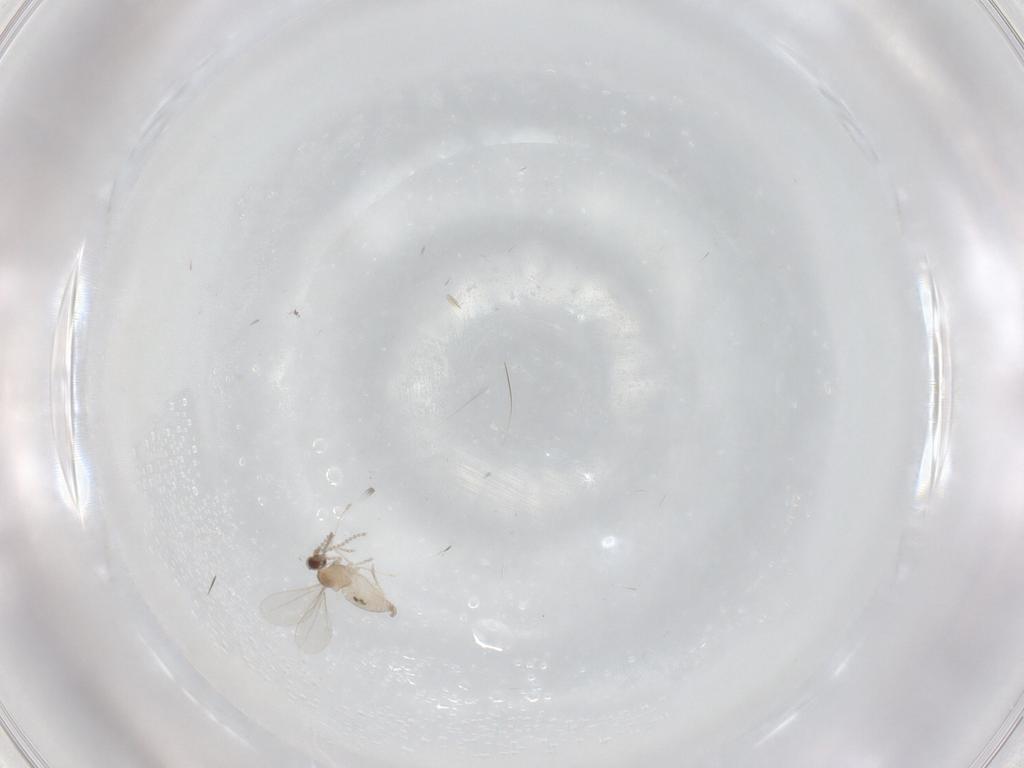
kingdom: Animalia
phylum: Arthropoda
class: Insecta
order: Diptera
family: Cecidomyiidae
